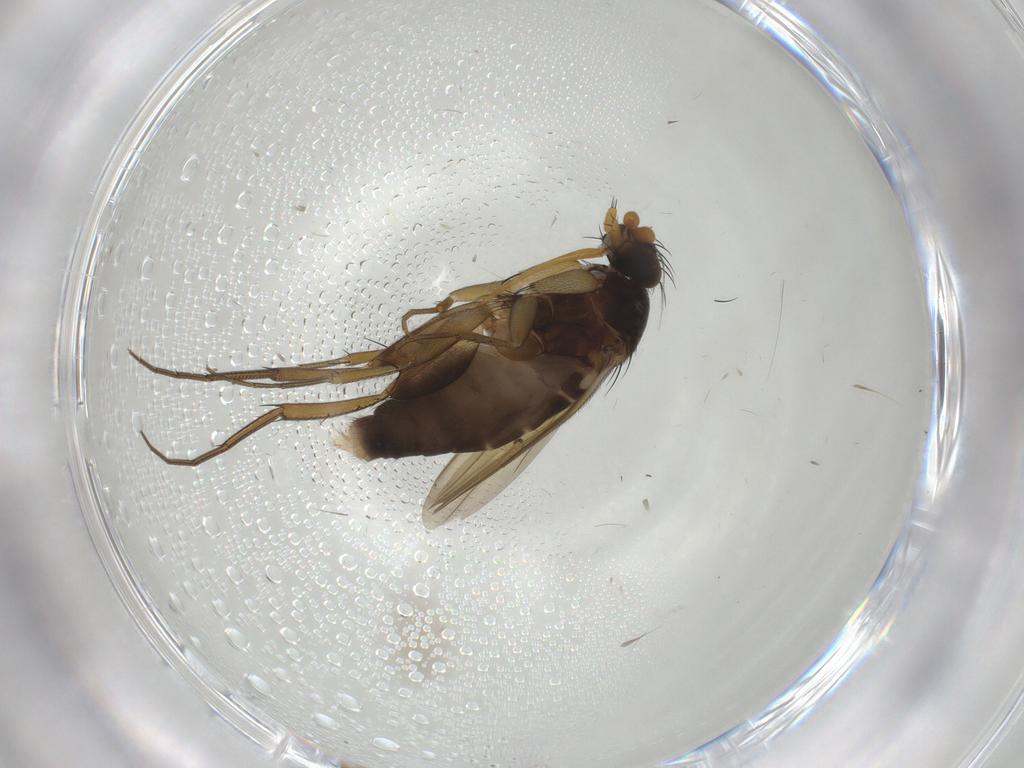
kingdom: Animalia
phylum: Arthropoda
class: Insecta
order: Diptera
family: Phoridae
